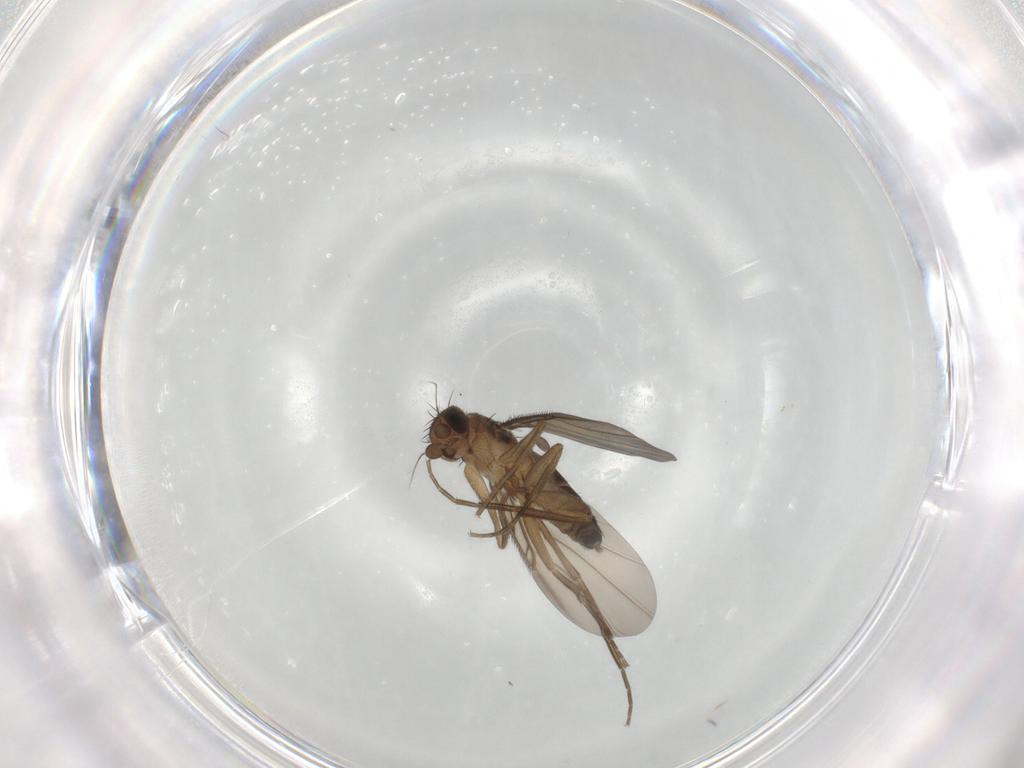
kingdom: Animalia
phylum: Arthropoda
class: Insecta
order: Diptera
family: Phoridae
